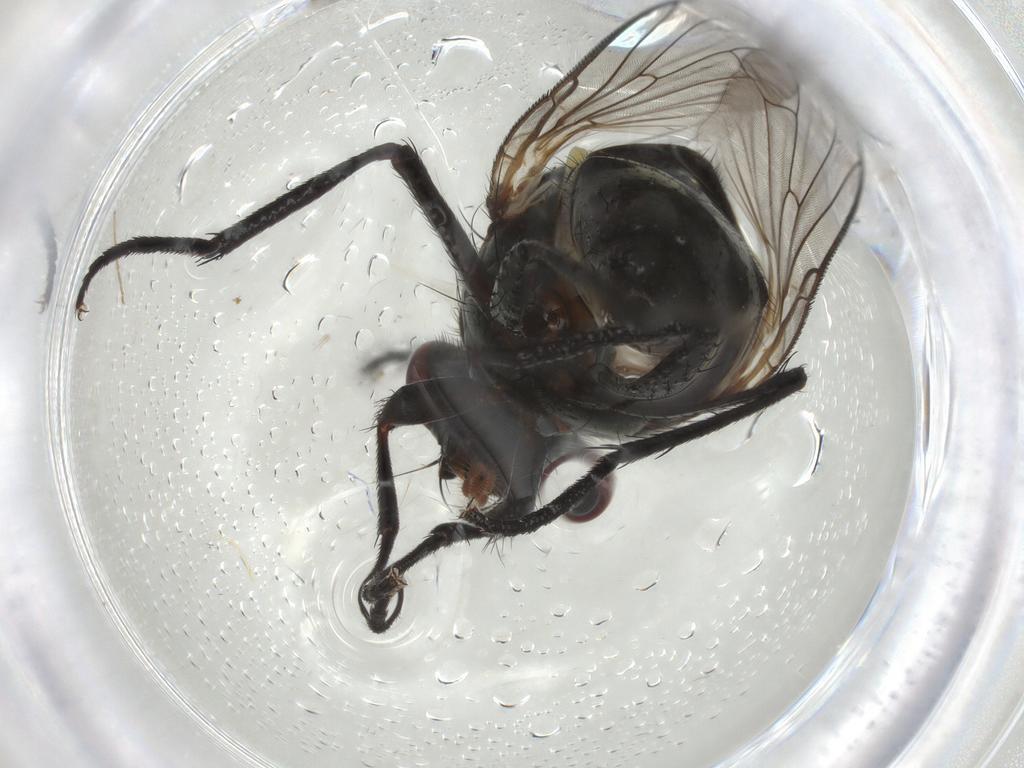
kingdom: Animalia
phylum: Arthropoda
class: Insecta
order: Diptera
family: Anthomyiidae
